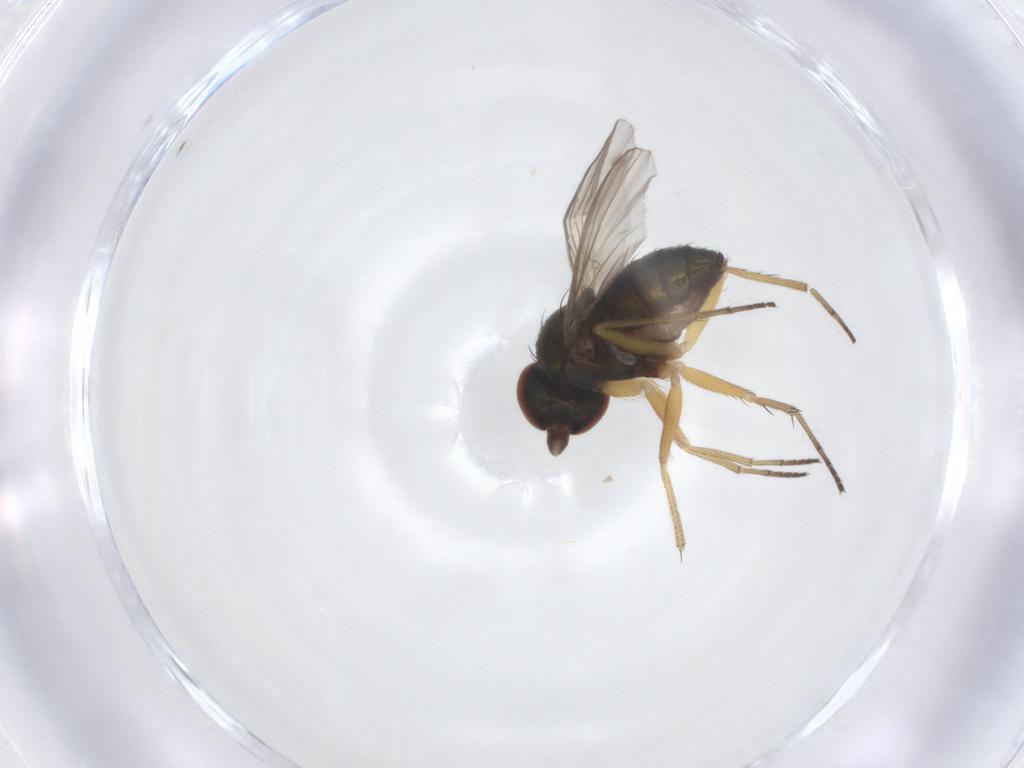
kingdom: Animalia
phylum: Arthropoda
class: Insecta
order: Diptera
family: Dolichopodidae
